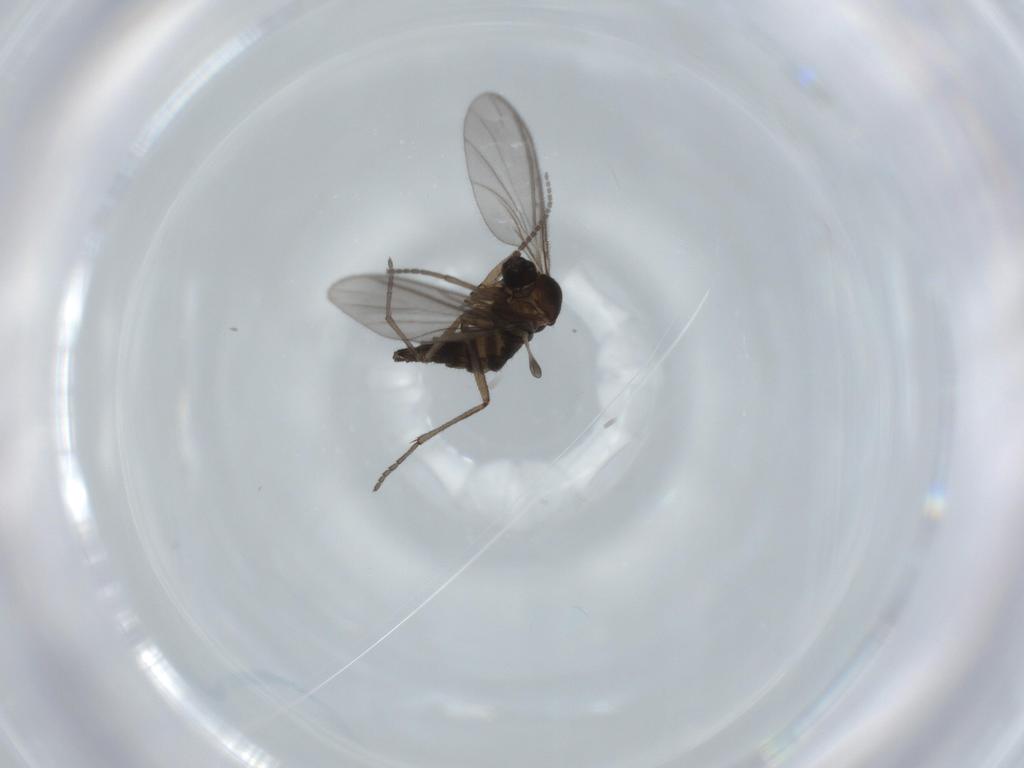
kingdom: Animalia
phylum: Arthropoda
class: Insecta
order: Diptera
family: Sciaridae
